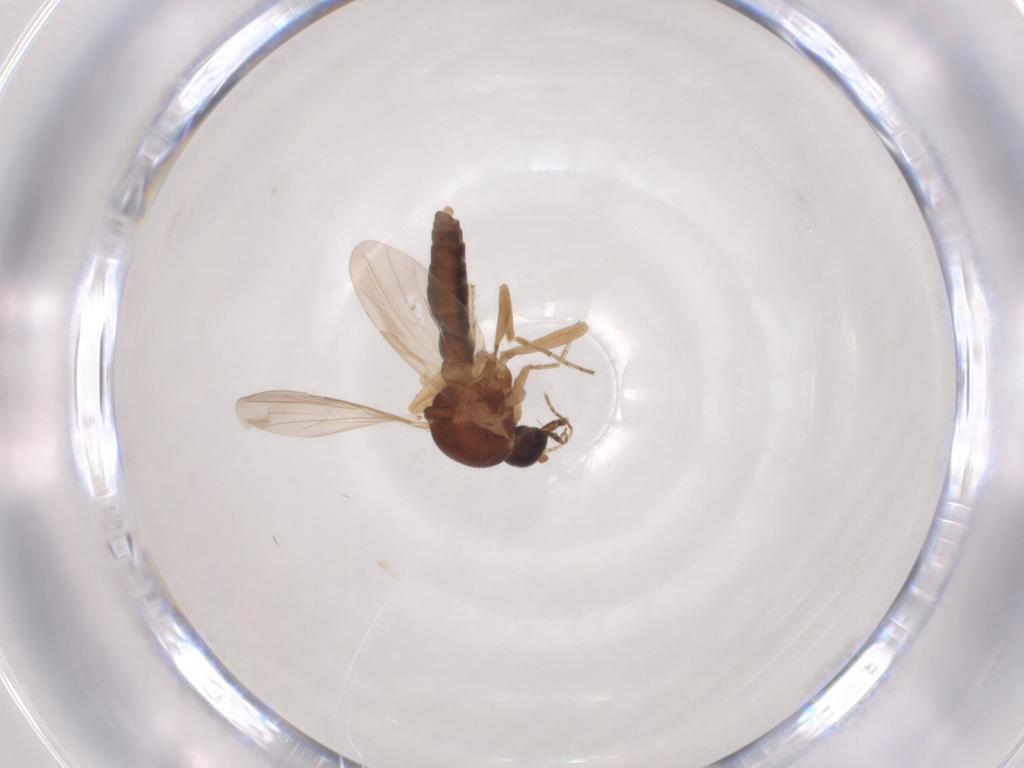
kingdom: Animalia
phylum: Arthropoda
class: Insecta
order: Diptera
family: Ceratopogonidae
